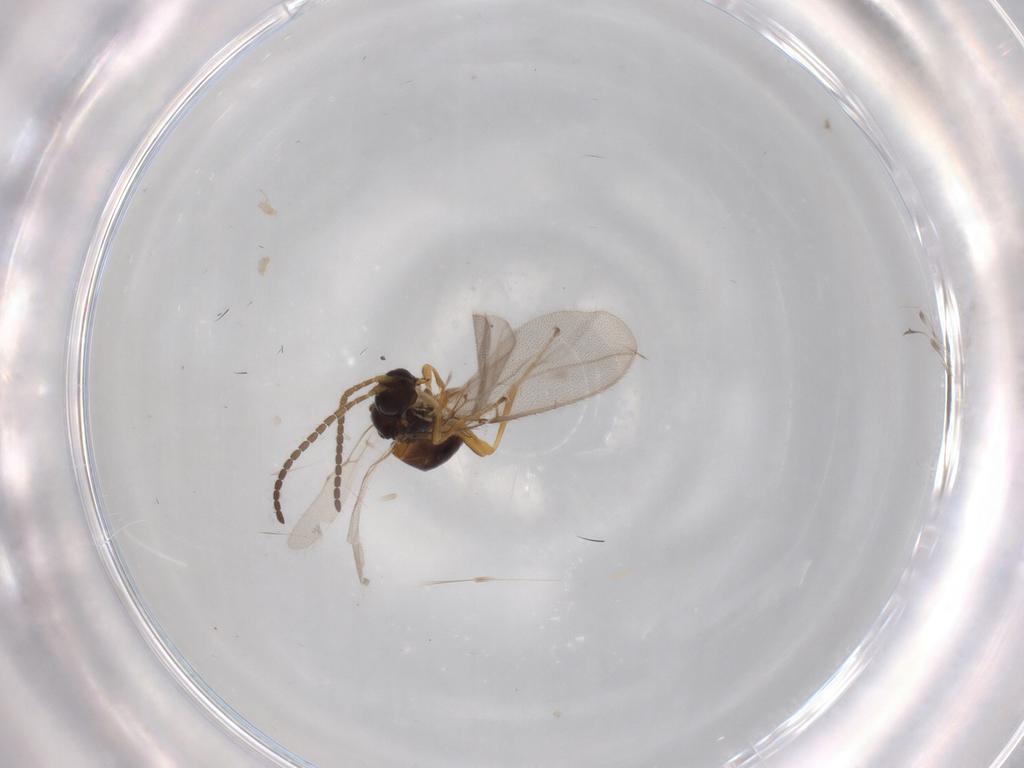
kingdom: Animalia
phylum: Arthropoda
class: Insecta
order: Hymenoptera
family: Braconidae
